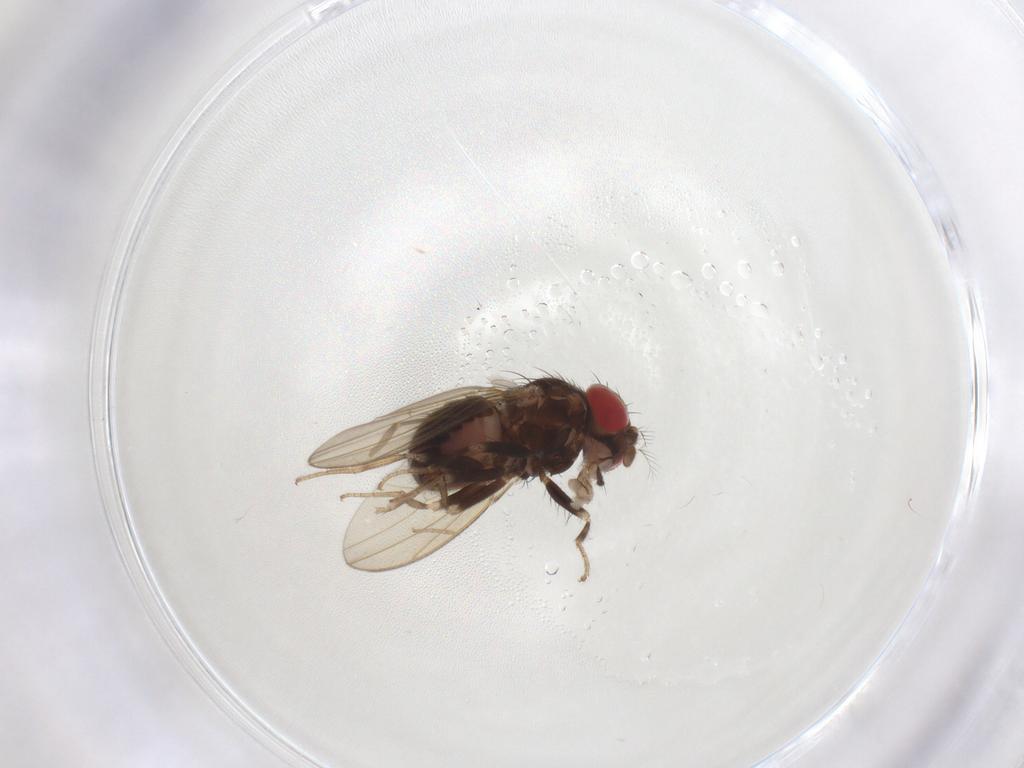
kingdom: Animalia
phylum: Arthropoda
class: Insecta
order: Diptera
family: Drosophilidae
